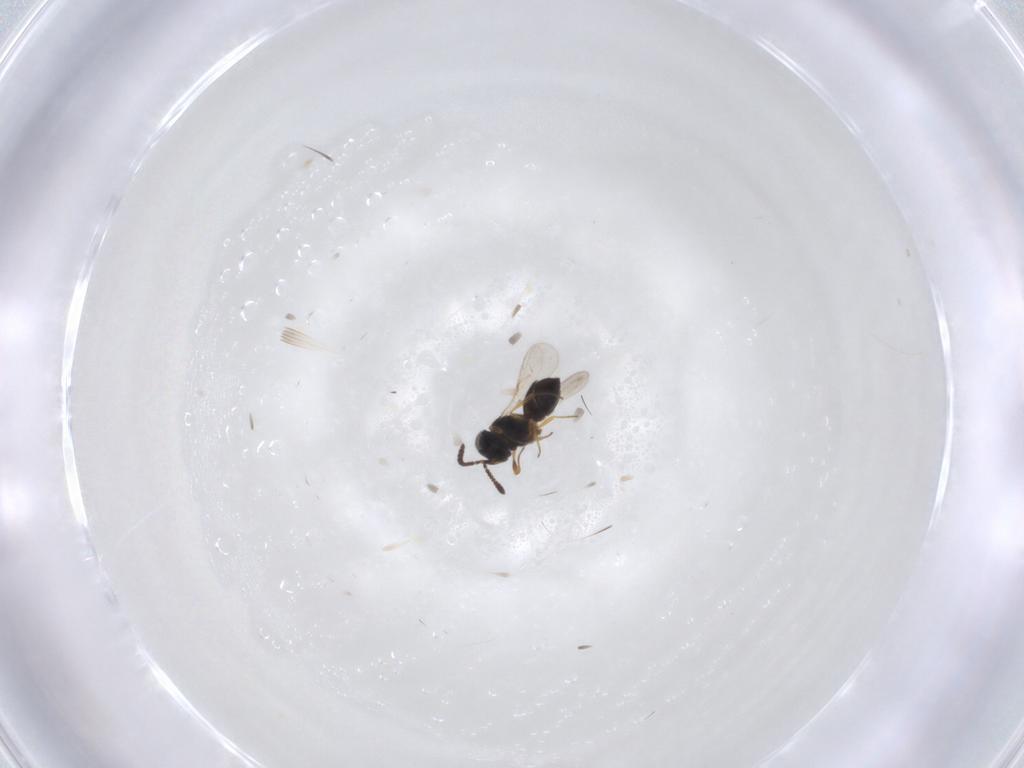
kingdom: Animalia
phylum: Arthropoda
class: Insecta
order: Hymenoptera
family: Scelionidae
